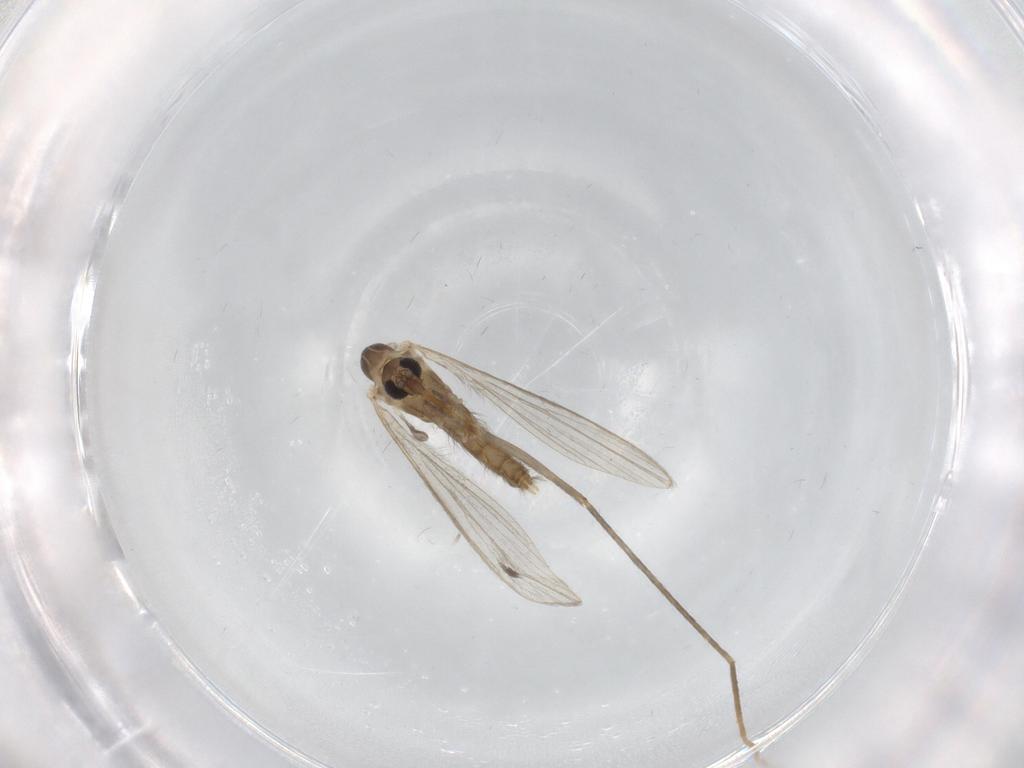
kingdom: Animalia
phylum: Arthropoda
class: Insecta
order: Diptera
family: Psychodidae
